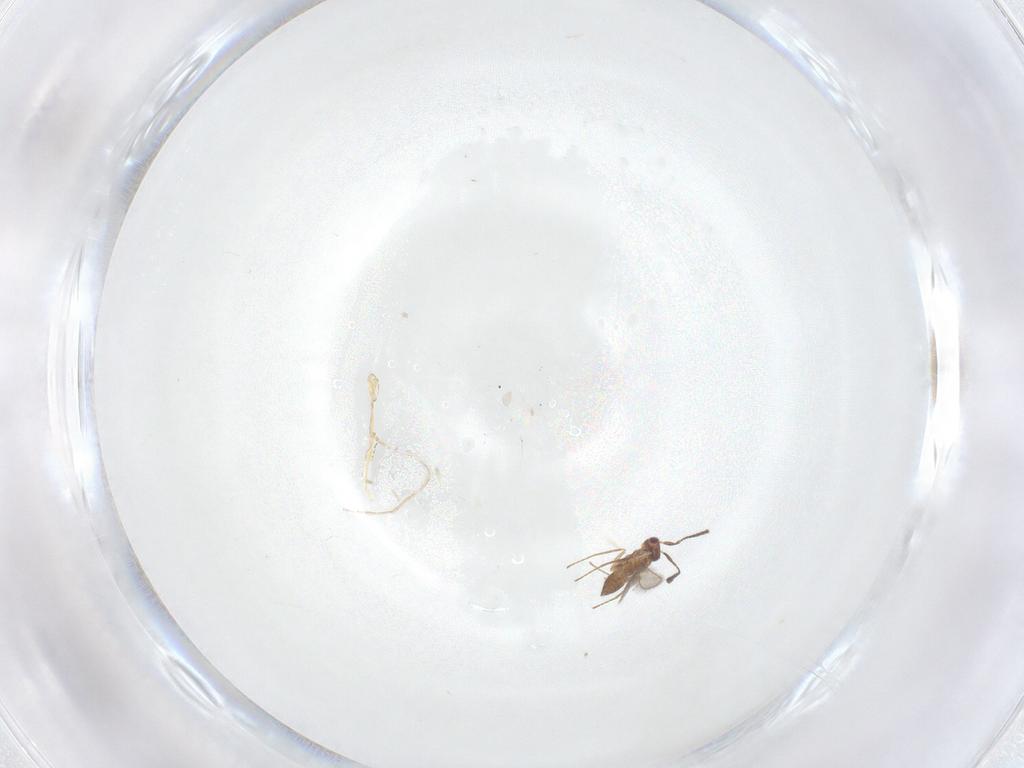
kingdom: Animalia
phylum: Arthropoda
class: Insecta
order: Hymenoptera
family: Mymaridae
